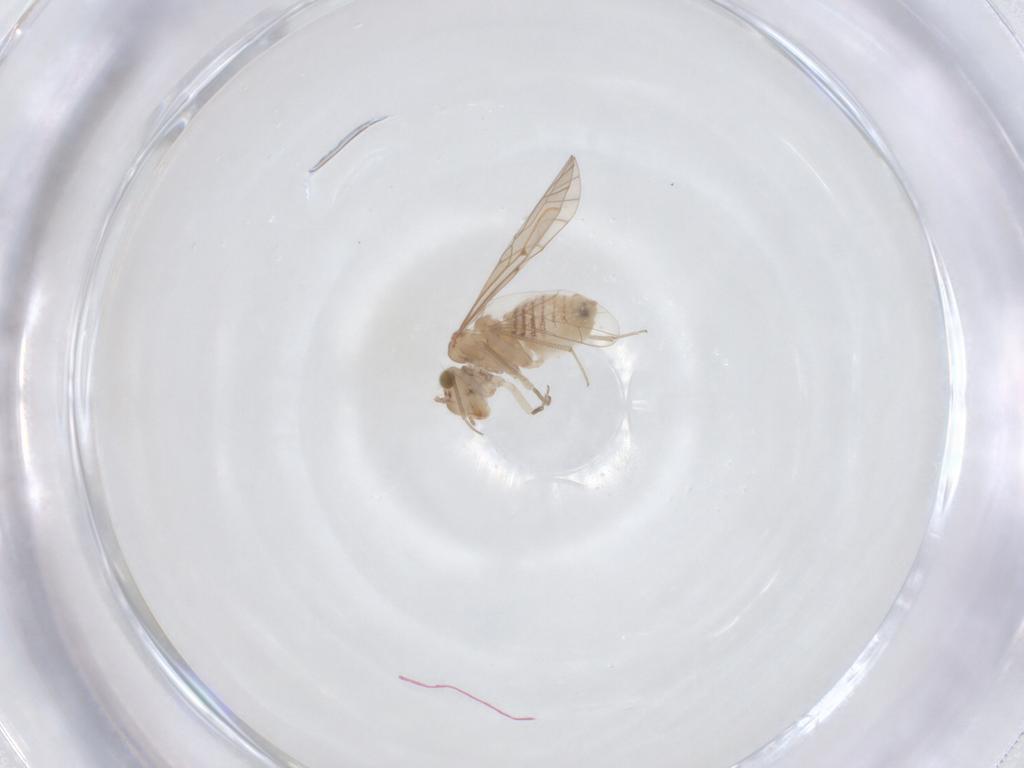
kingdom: Animalia
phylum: Arthropoda
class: Insecta
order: Psocodea
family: Lachesillidae
